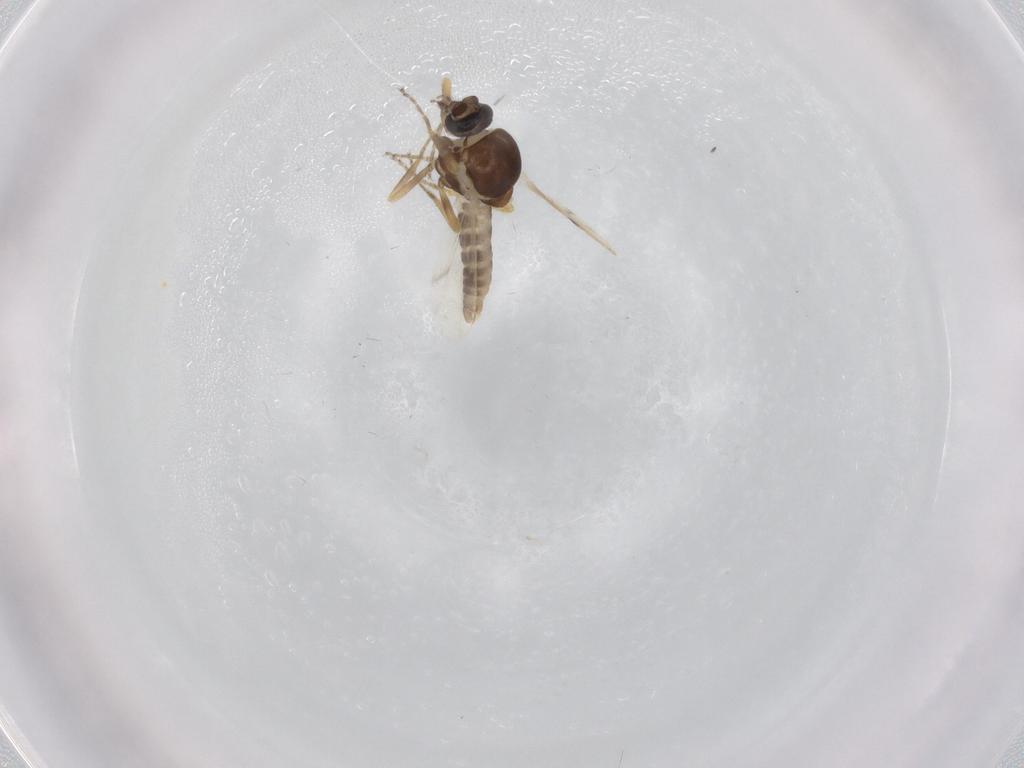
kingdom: Animalia
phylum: Arthropoda
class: Insecta
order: Diptera
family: Ceratopogonidae
